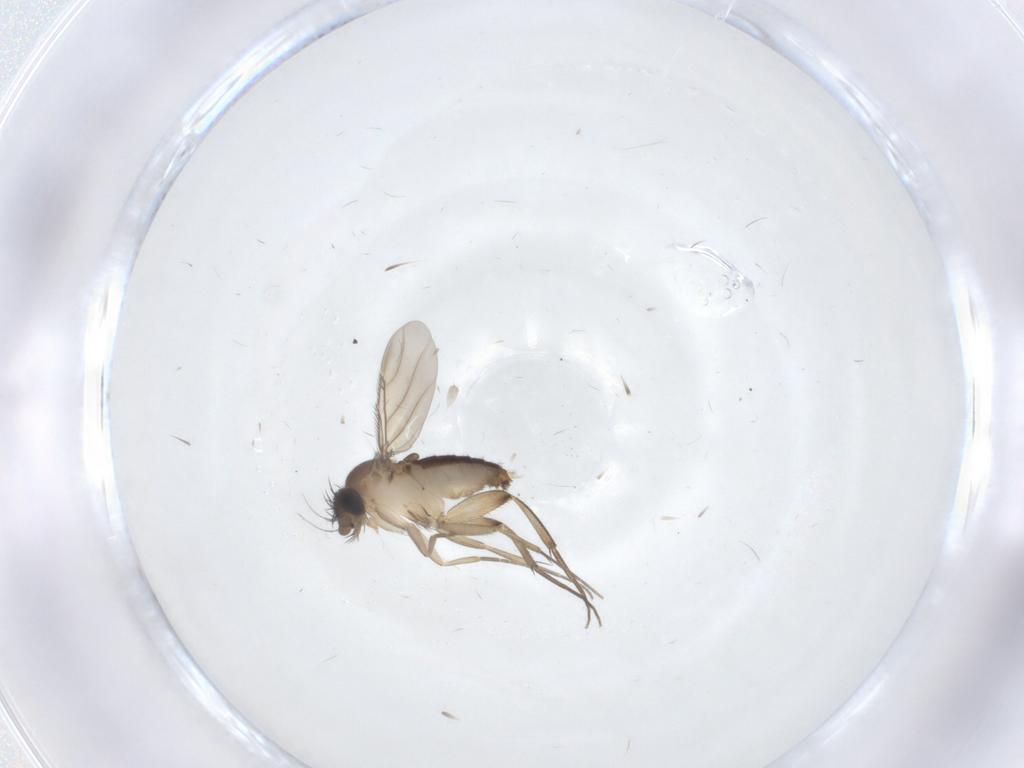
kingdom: Animalia
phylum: Arthropoda
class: Insecta
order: Diptera
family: Phoridae
